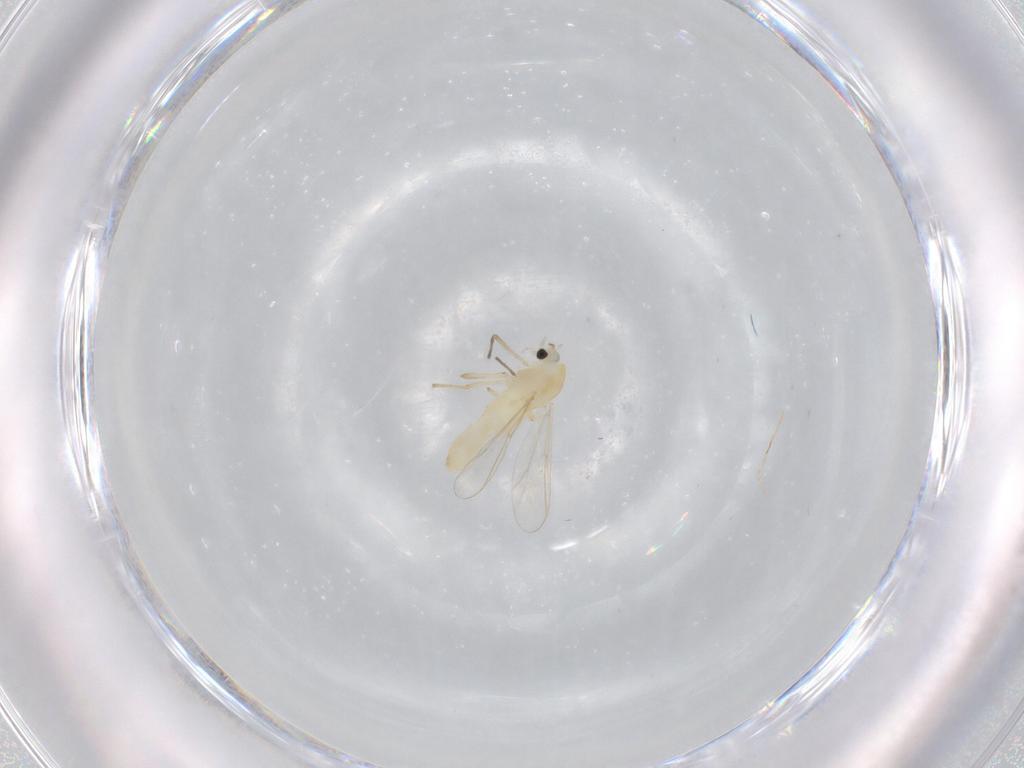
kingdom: Animalia
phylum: Arthropoda
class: Insecta
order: Diptera
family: Chironomidae
